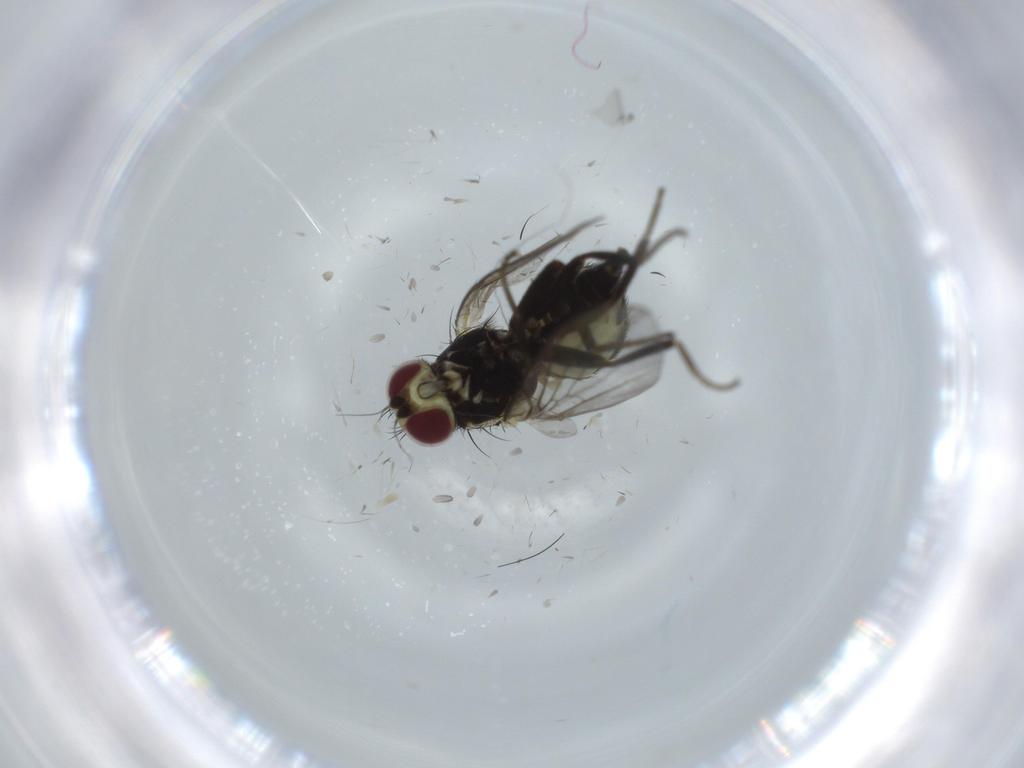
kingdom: Animalia
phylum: Arthropoda
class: Insecta
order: Diptera
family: Agromyzidae
